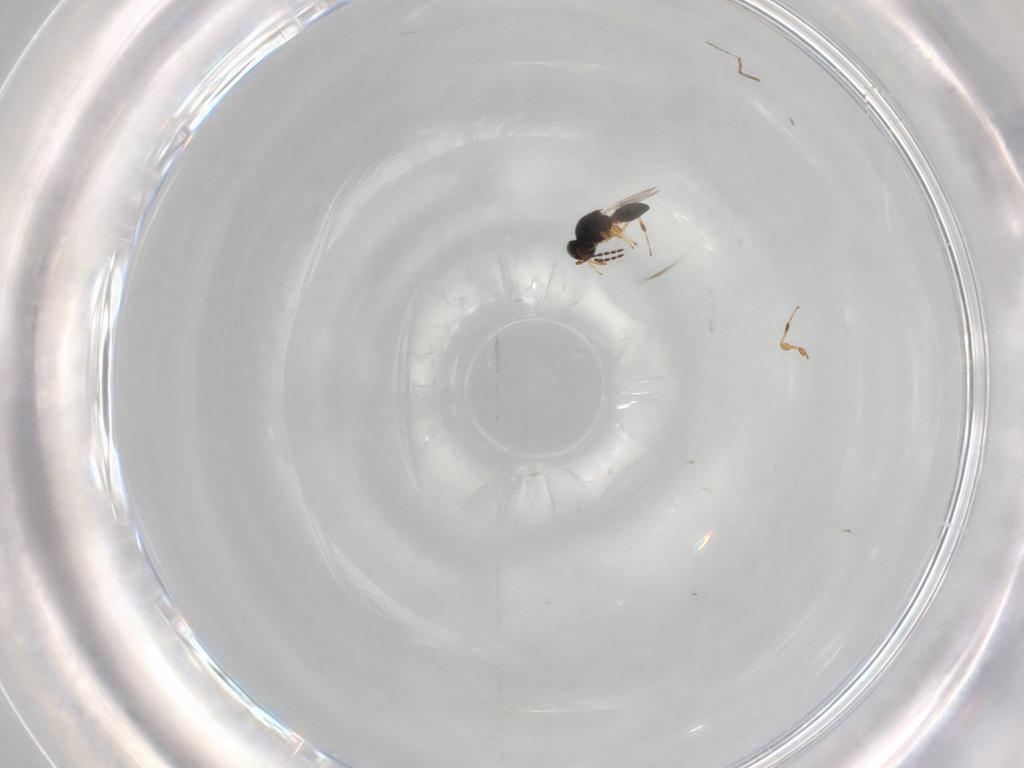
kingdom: Animalia
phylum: Arthropoda
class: Insecta
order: Hymenoptera
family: Platygastridae
